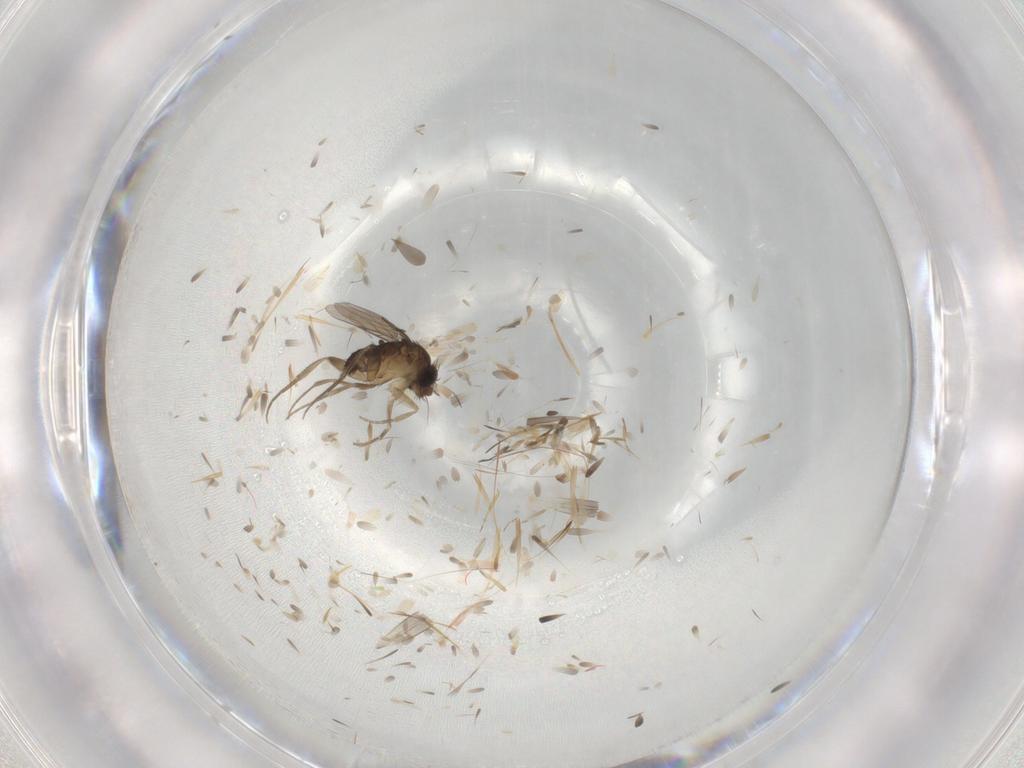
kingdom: Animalia
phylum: Arthropoda
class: Insecta
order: Diptera
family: Phoridae
